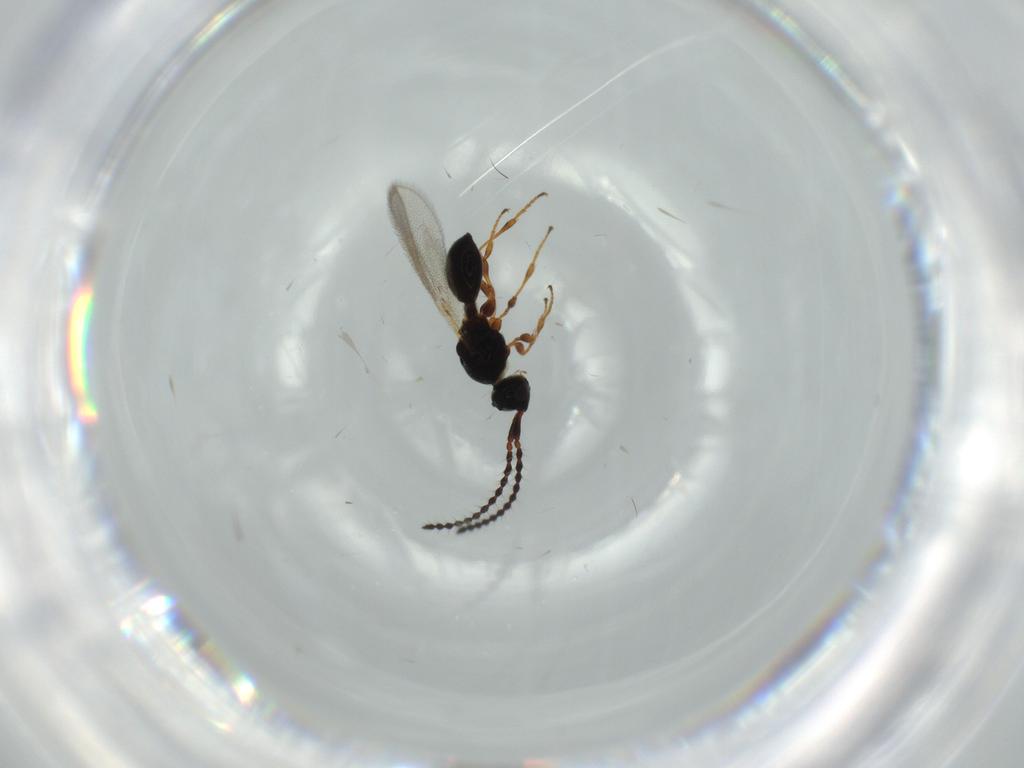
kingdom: Animalia
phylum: Arthropoda
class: Insecta
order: Hymenoptera
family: Diapriidae
